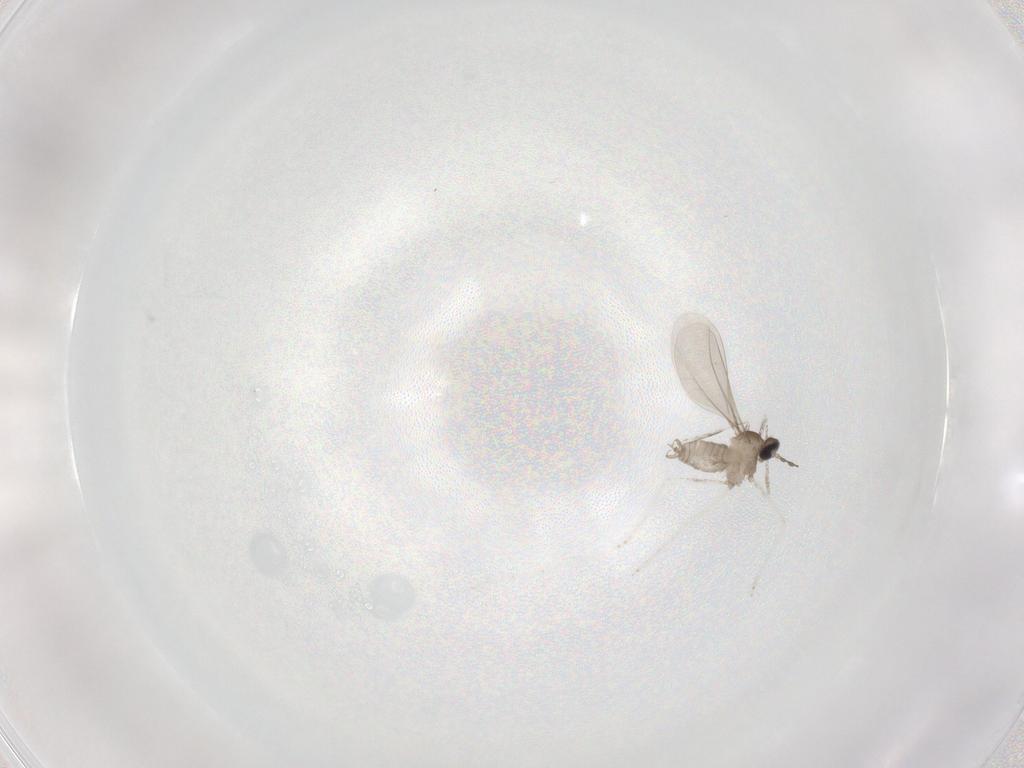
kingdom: Animalia
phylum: Arthropoda
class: Insecta
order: Diptera
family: Cecidomyiidae
